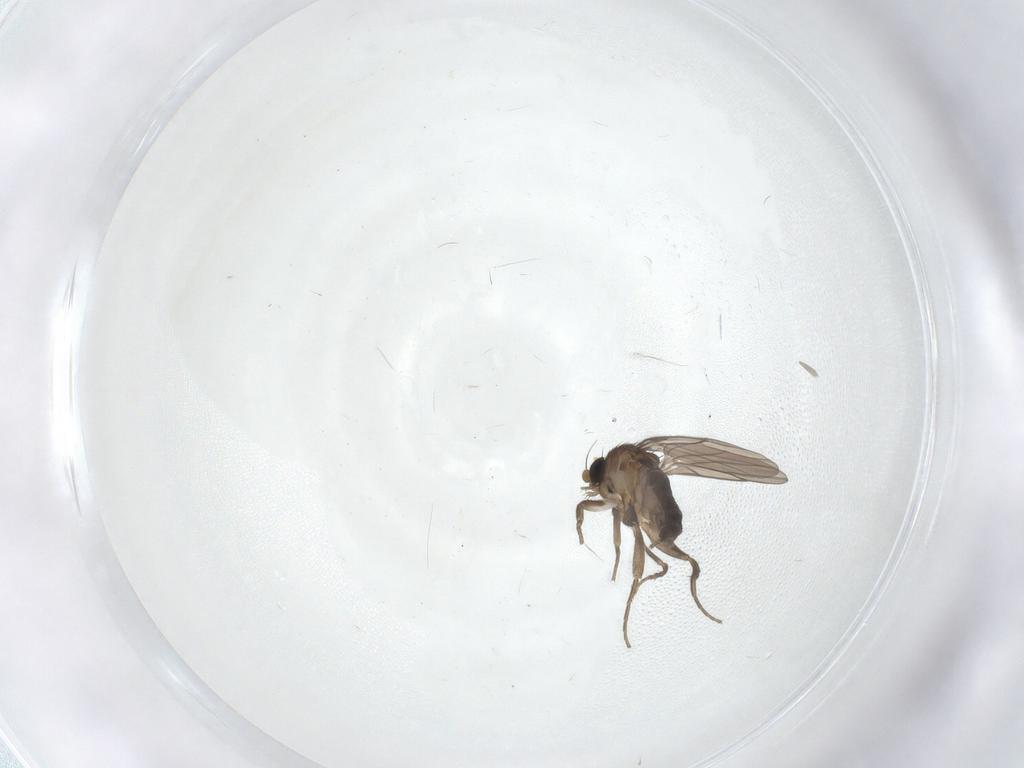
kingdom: Animalia
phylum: Arthropoda
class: Insecta
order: Diptera
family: Phoridae
